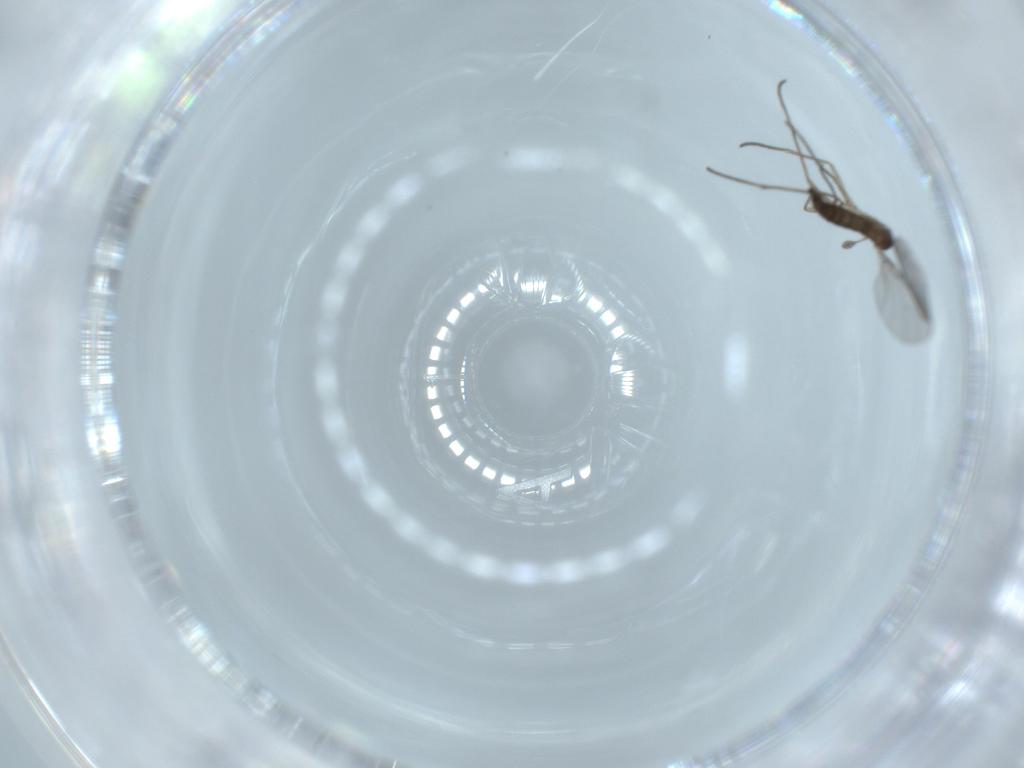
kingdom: Animalia
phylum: Arthropoda
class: Insecta
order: Diptera
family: Sciaridae
